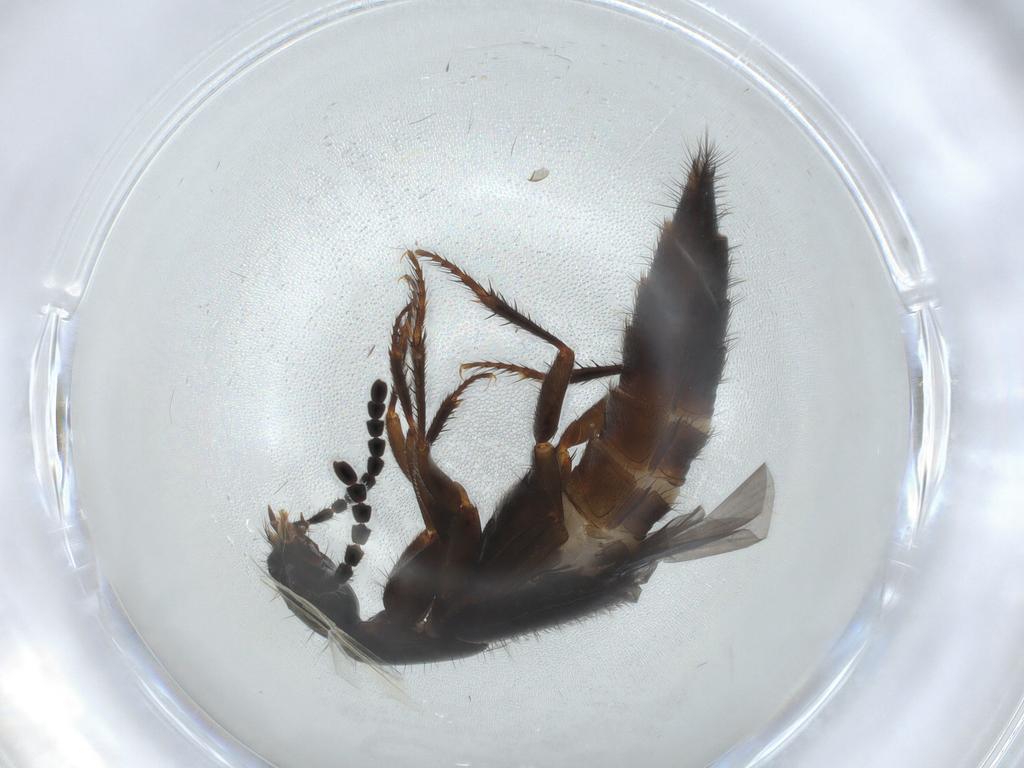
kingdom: Animalia
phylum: Arthropoda
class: Insecta
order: Coleoptera
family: Staphylinidae
